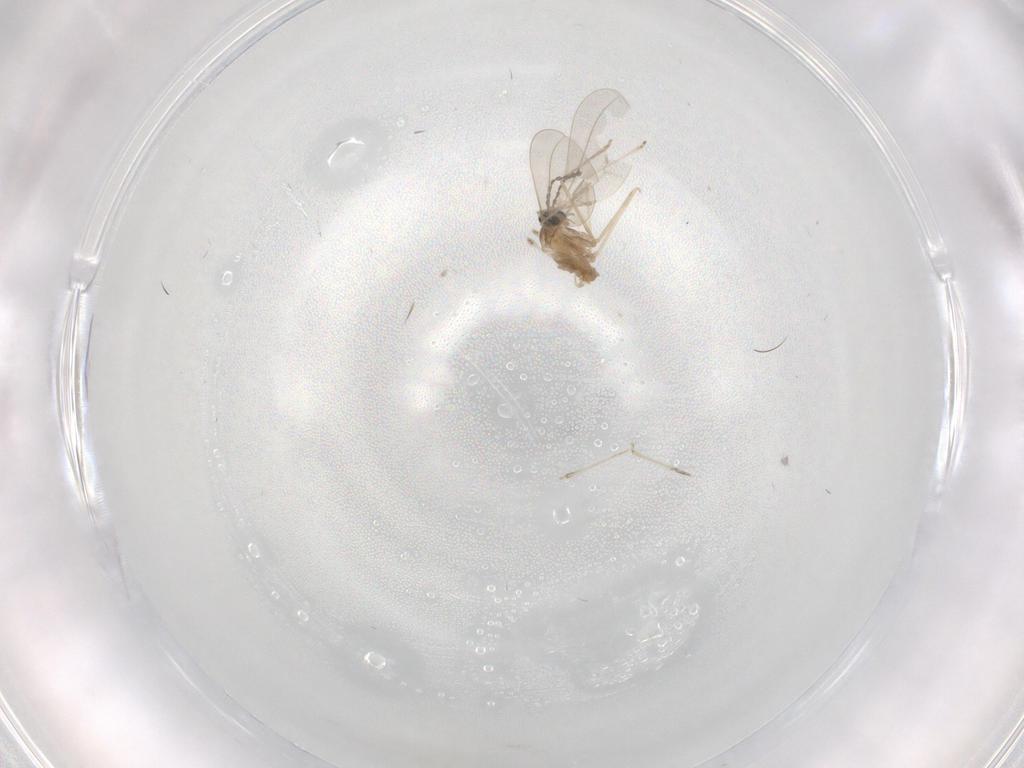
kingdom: Animalia
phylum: Arthropoda
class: Insecta
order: Diptera
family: Cecidomyiidae
